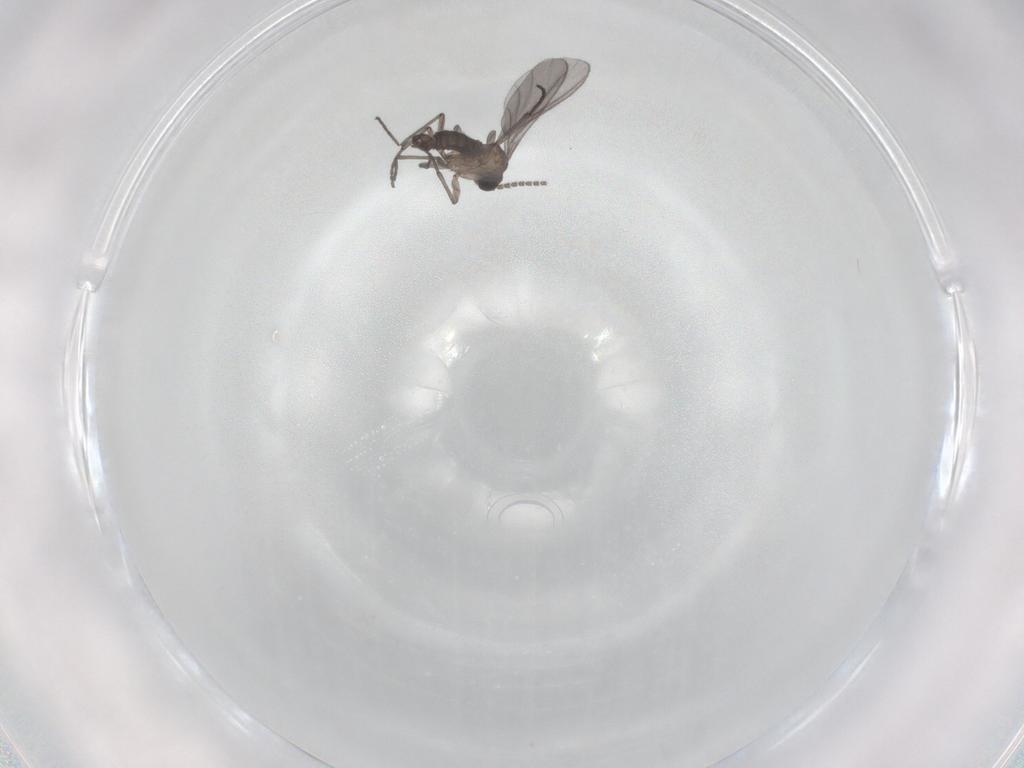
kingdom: Animalia
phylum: Arthropoda
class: Insecta
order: Diptera
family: Sciaridae
